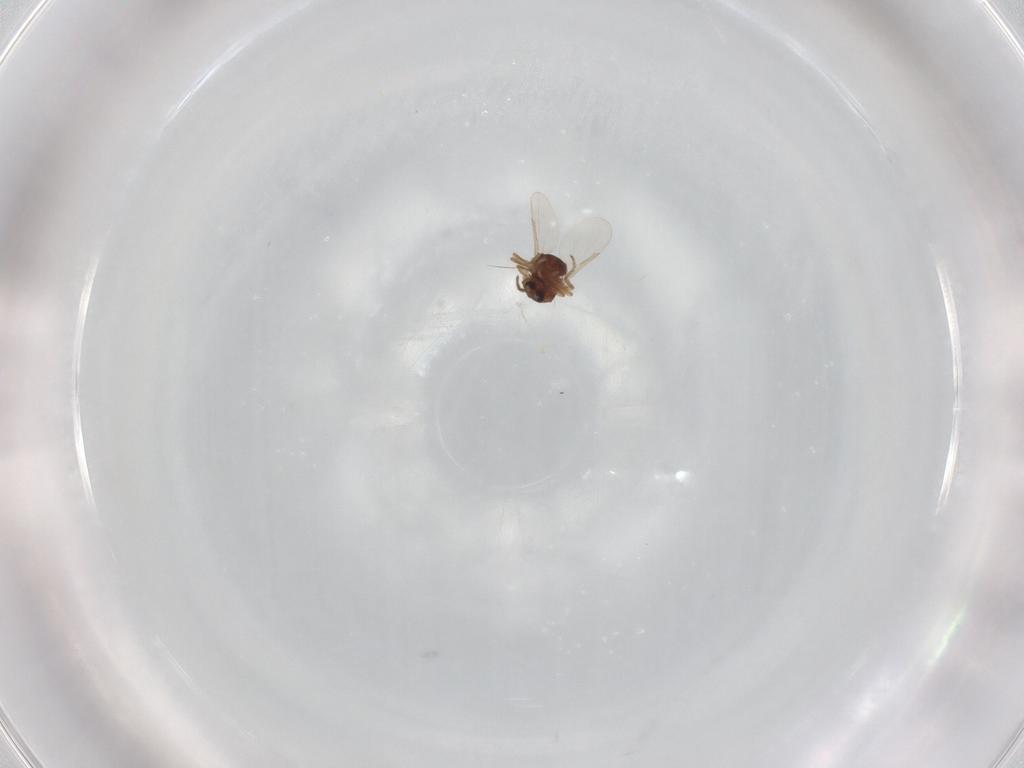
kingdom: Animalia
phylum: Arthropoda
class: Insecta
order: Diptera
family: Ceratopogonidae
